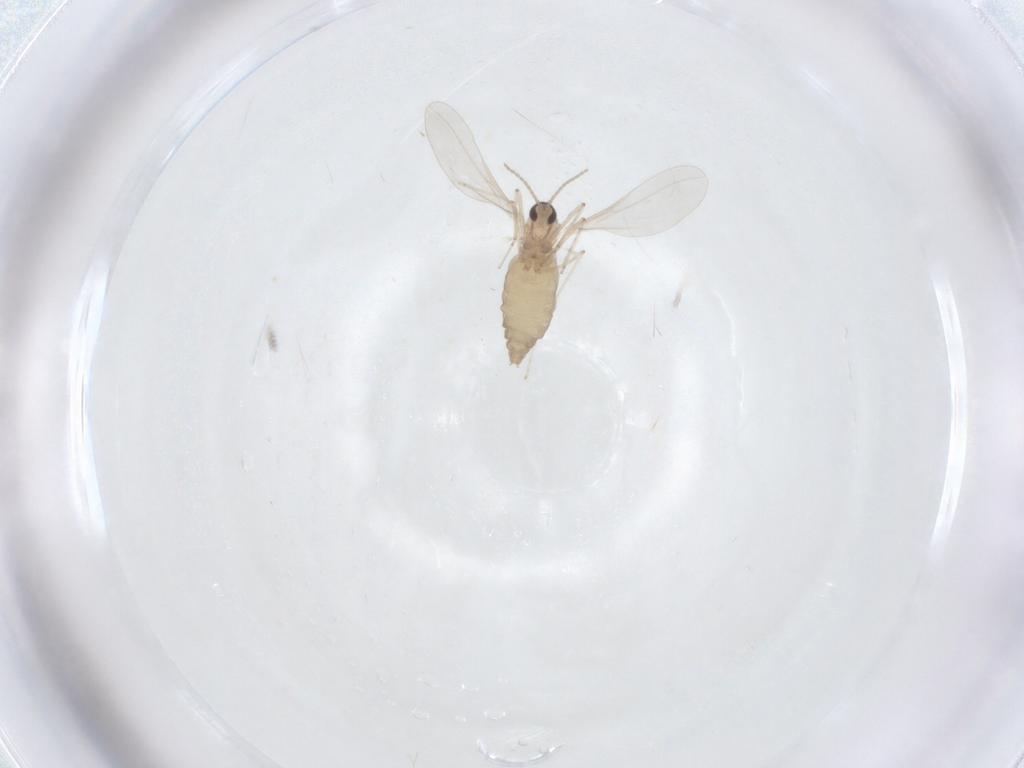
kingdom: Animalia
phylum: Arthropoda
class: Insecta
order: Diptera
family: Cecidomyiidae
